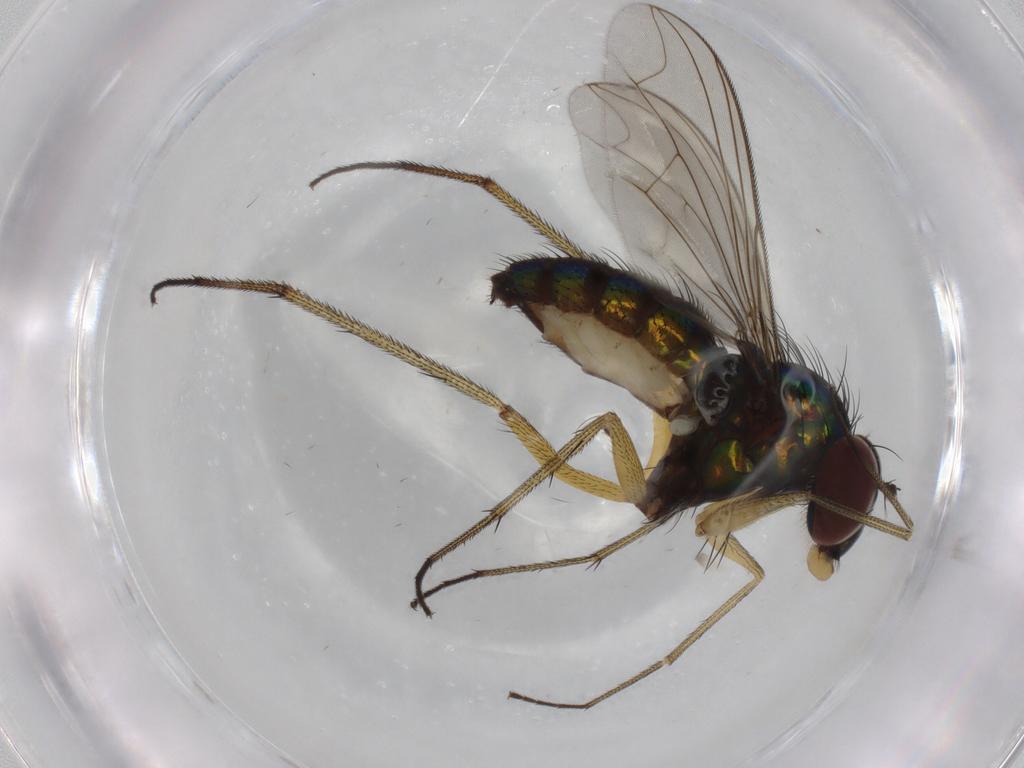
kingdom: Animalia
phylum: Arthropoda
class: Insecta
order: Diptera
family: Dolichopodidae
